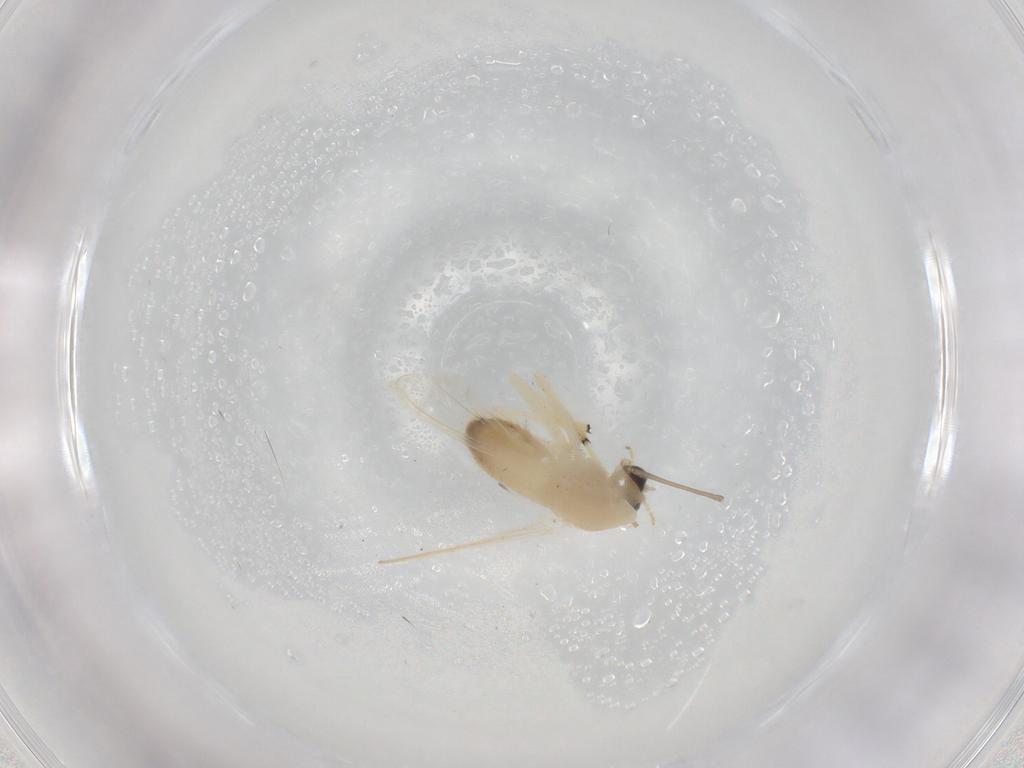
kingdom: Animalia
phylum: Arthropoda
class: Insecta
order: Diptera
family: Chironomidae
